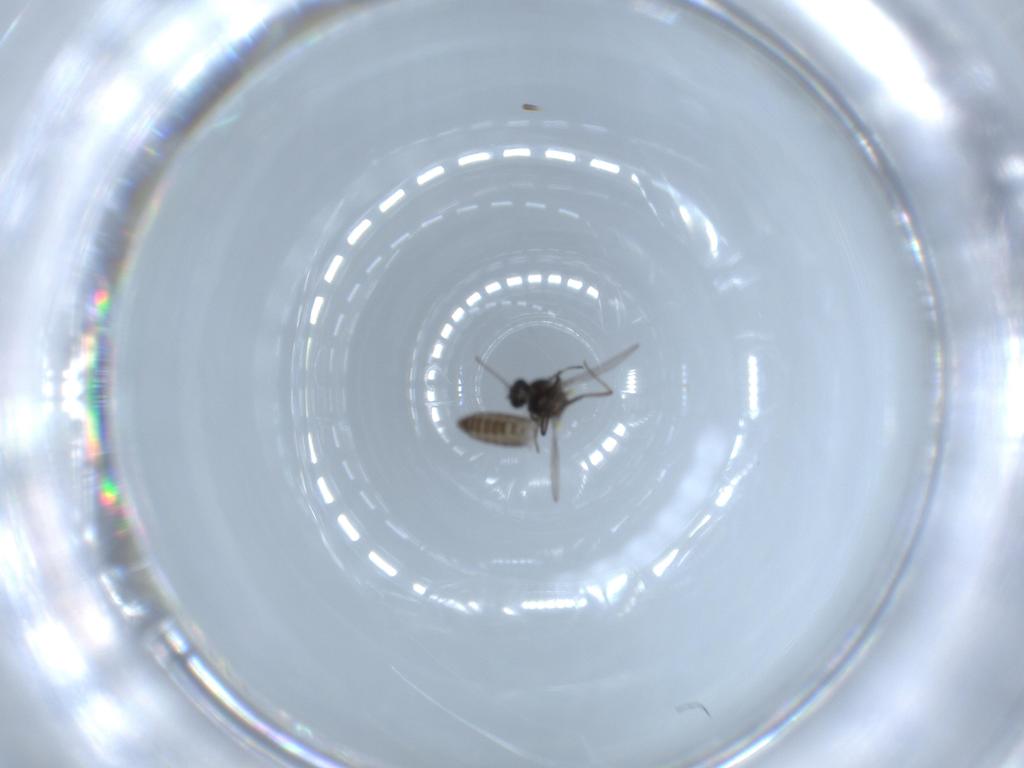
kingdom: Animalia
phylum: Arthropoda
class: Insecta
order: Diptera
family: Ceratopogonidae
